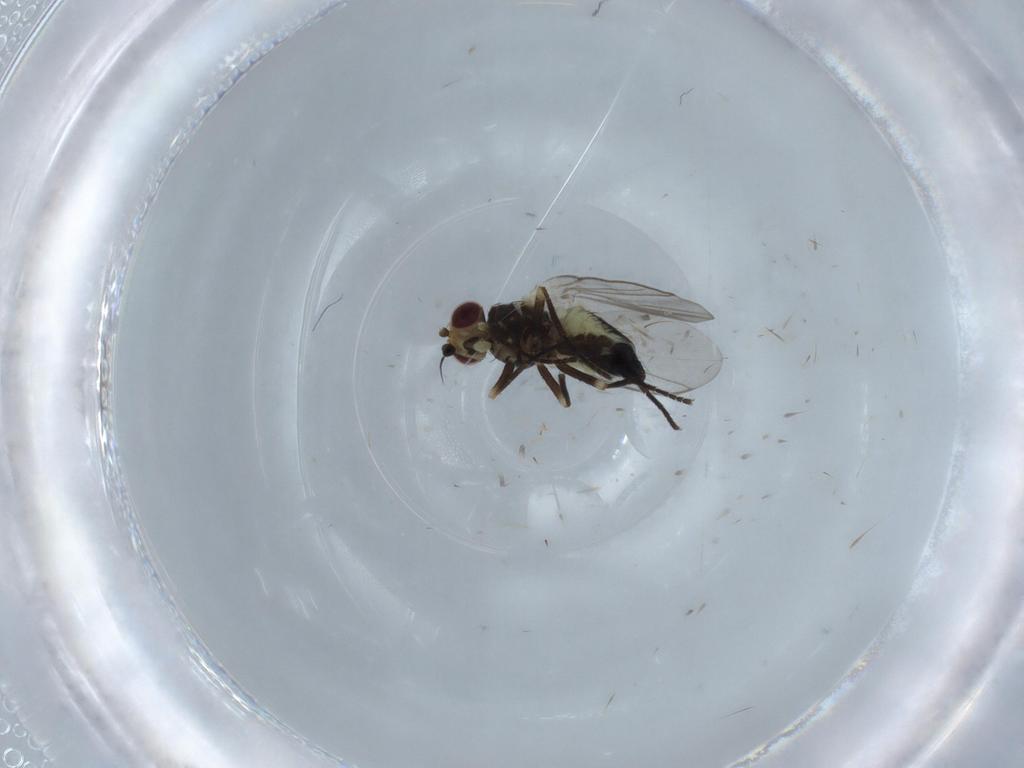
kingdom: Animalia
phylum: Arthropoda
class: Insecta
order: Diptera
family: Agromyzidae
